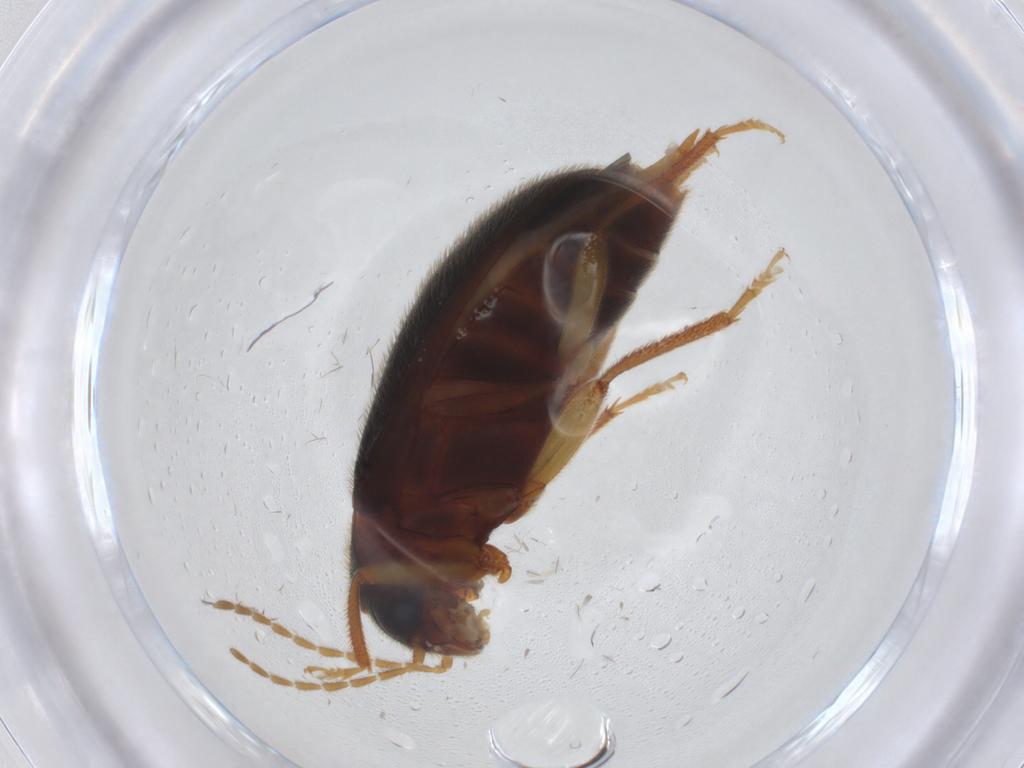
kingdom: Animalia
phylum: Arthropoda
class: Insecta
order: Coleoptera
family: Ptilodactylidae
